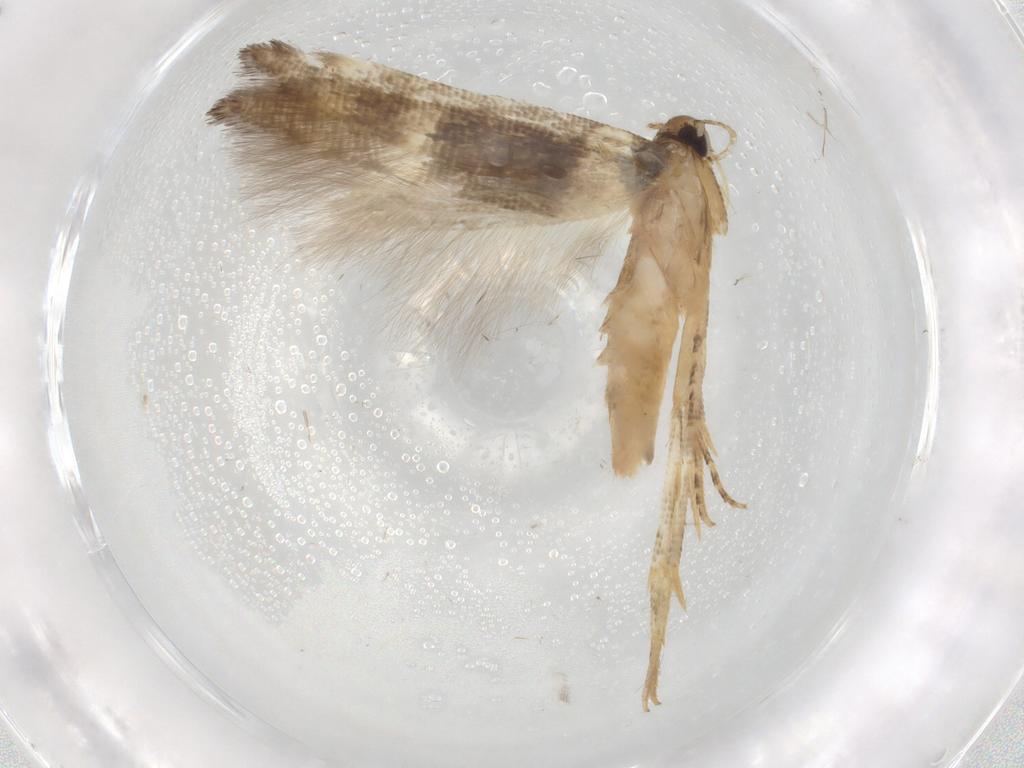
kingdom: Animalia
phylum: Arthropoda
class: Insecta
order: Lepidoptera
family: Cosmopterigidae
